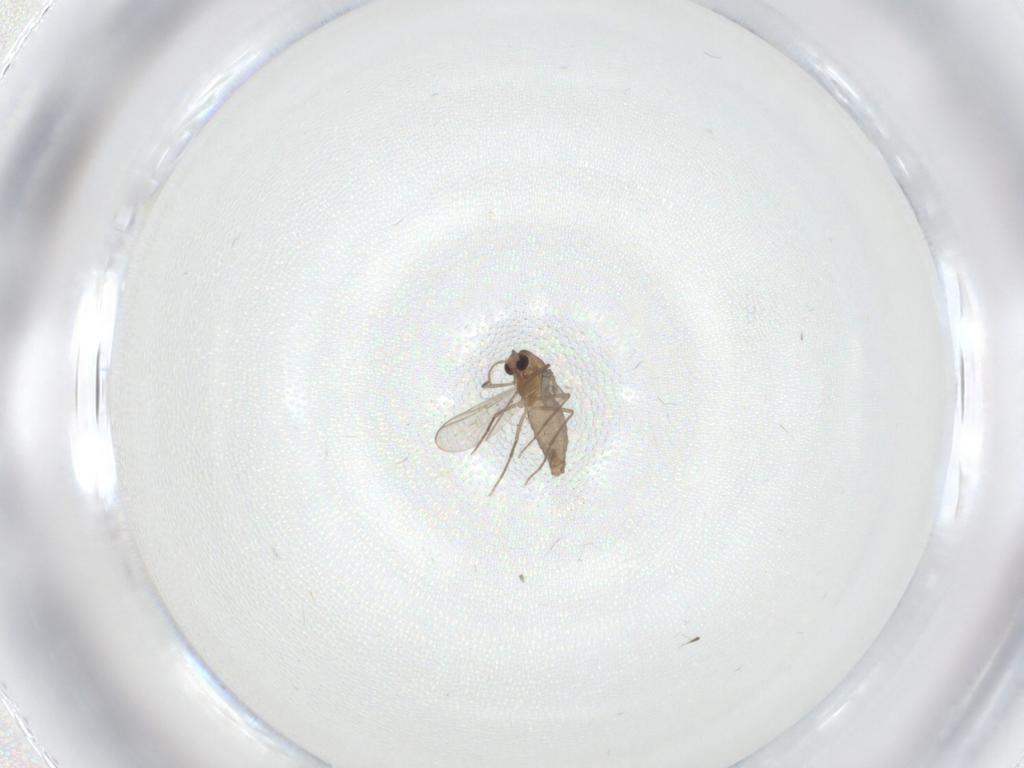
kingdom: Animalia
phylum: Arthropoda
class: Insecta
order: Diptera
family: Chironomidae
